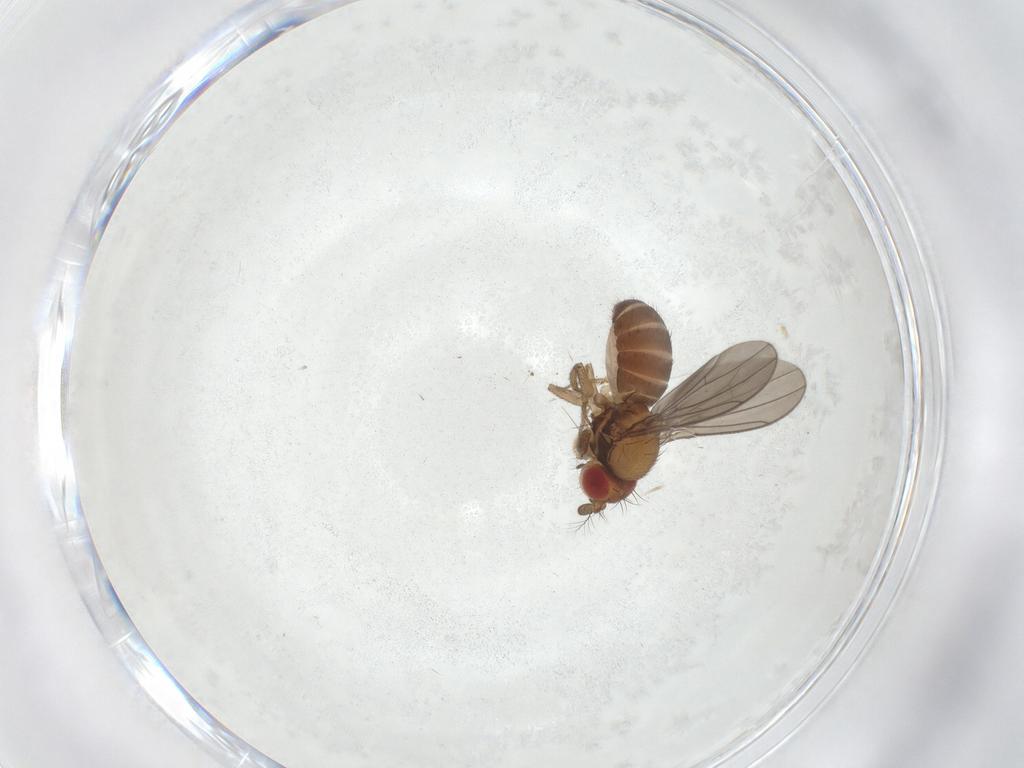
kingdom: Animalia
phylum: Arthropoda
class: Insecta
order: Diptera
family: Drosophilidae
